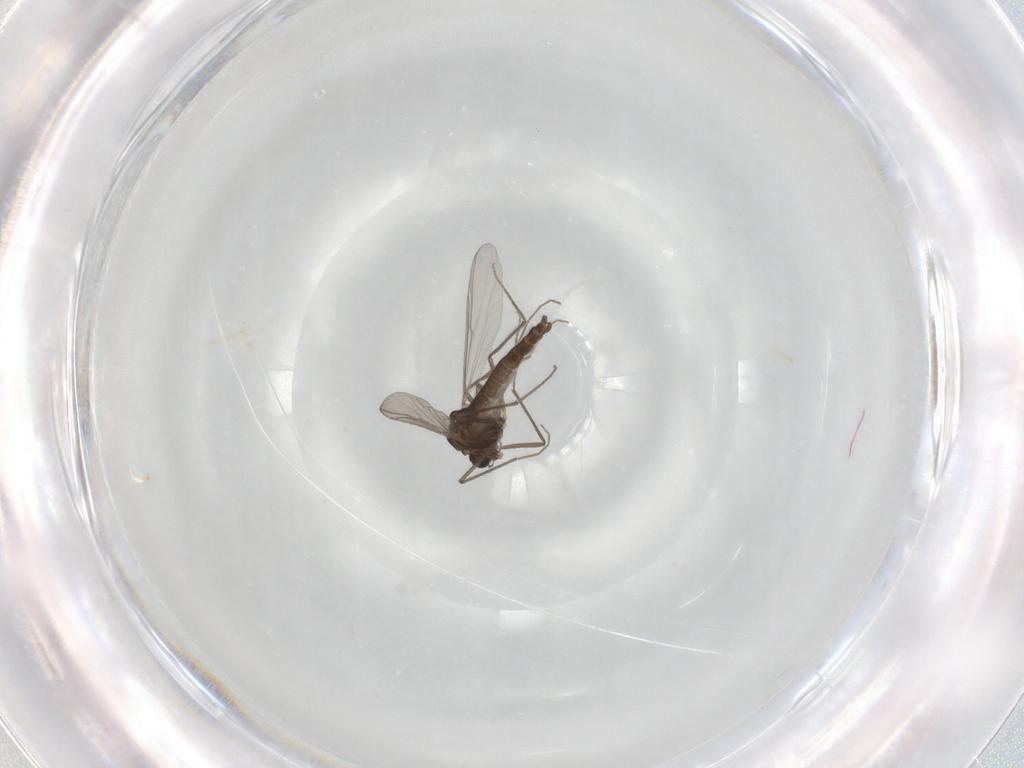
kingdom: Animalia
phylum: Arthropoda
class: Insecta
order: Diptera
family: Chironomidae
